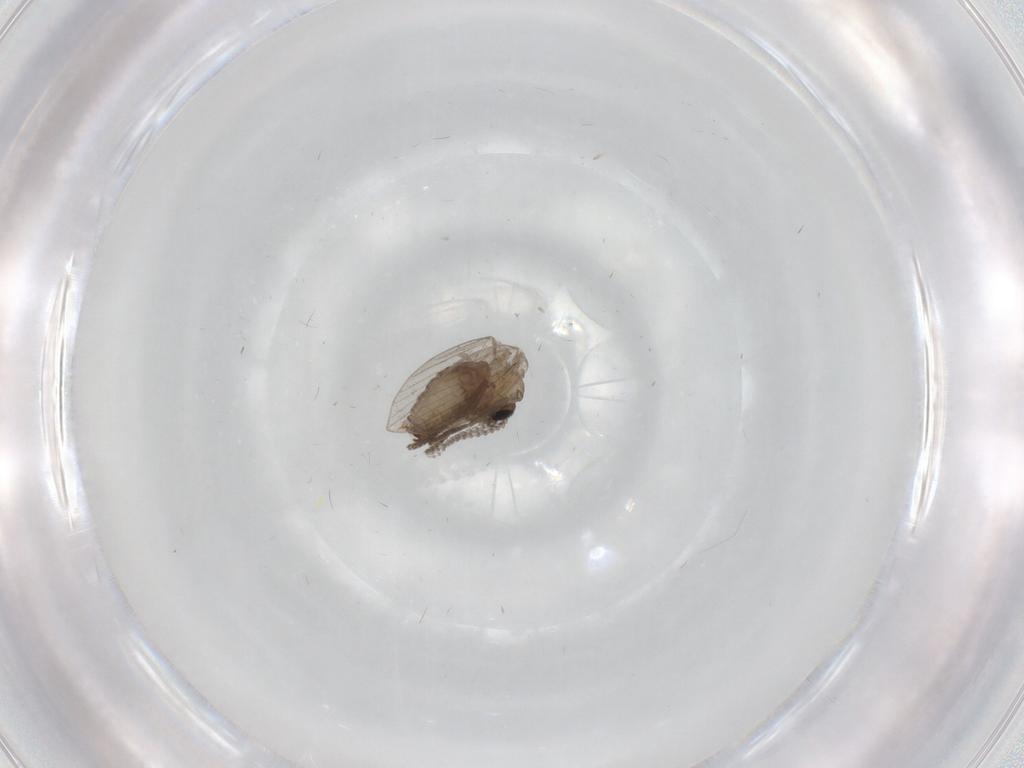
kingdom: Animalia
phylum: Arthropoda
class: Insecta
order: Diptera
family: Psychodidae
